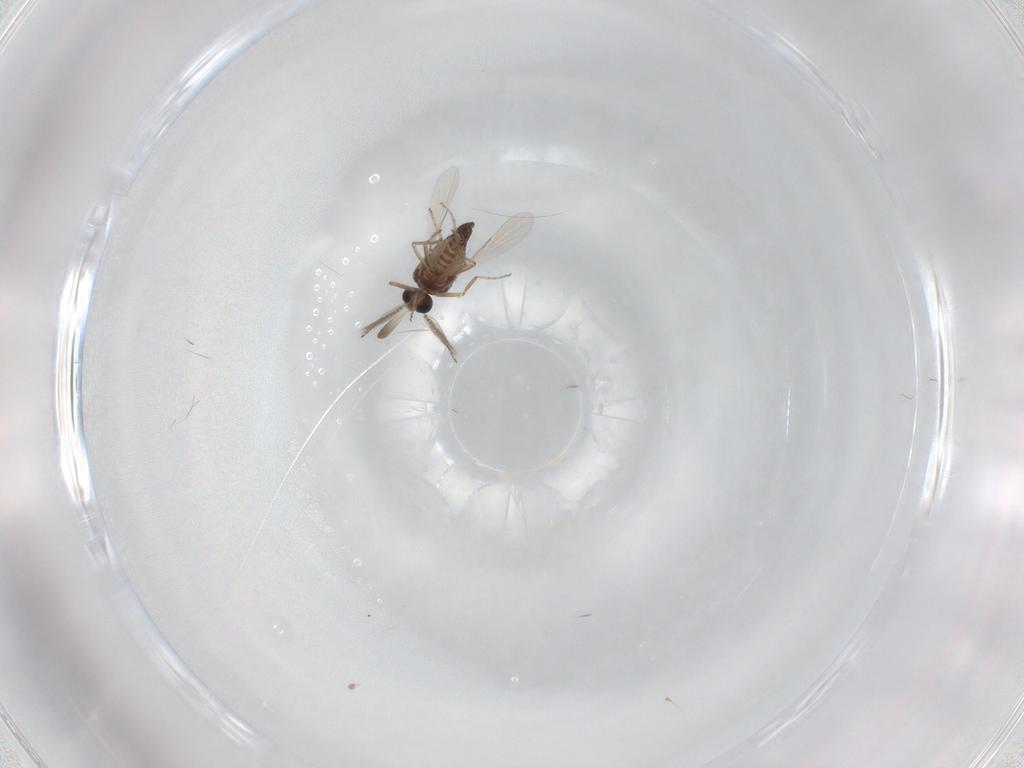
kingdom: Animalia
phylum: Arthropoda
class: Insecta
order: Diptera
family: Ceratopogonidae
